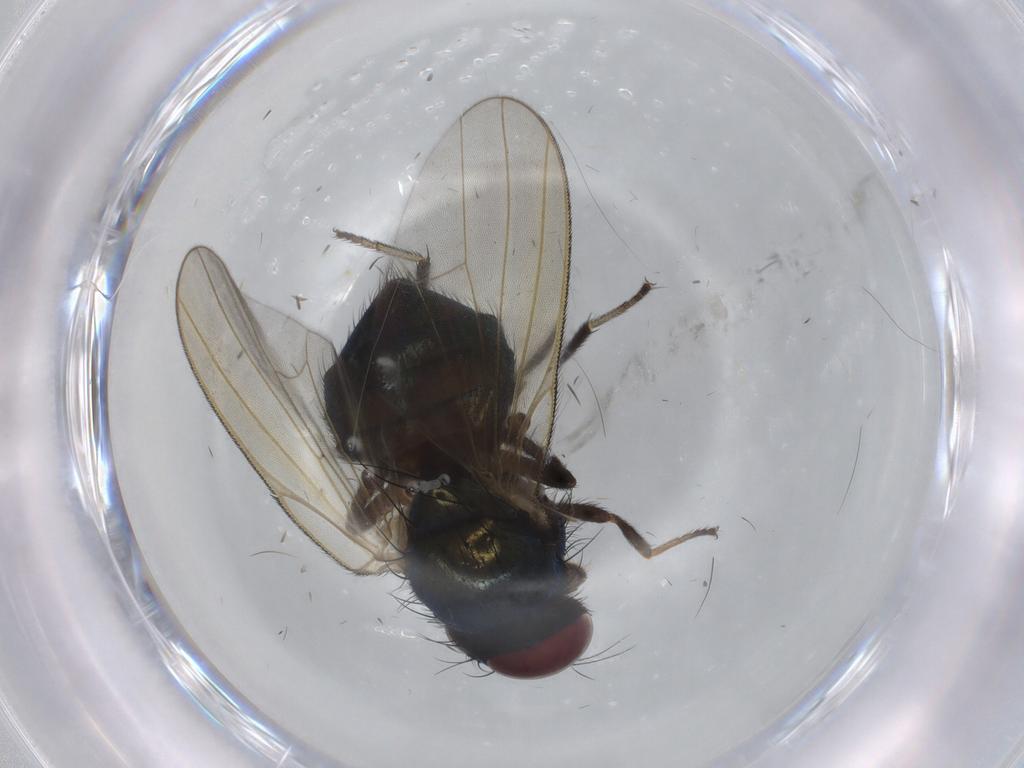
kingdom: Animalia
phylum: Arthropoda
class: Insecta
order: Diptera
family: Lonchaeidae
